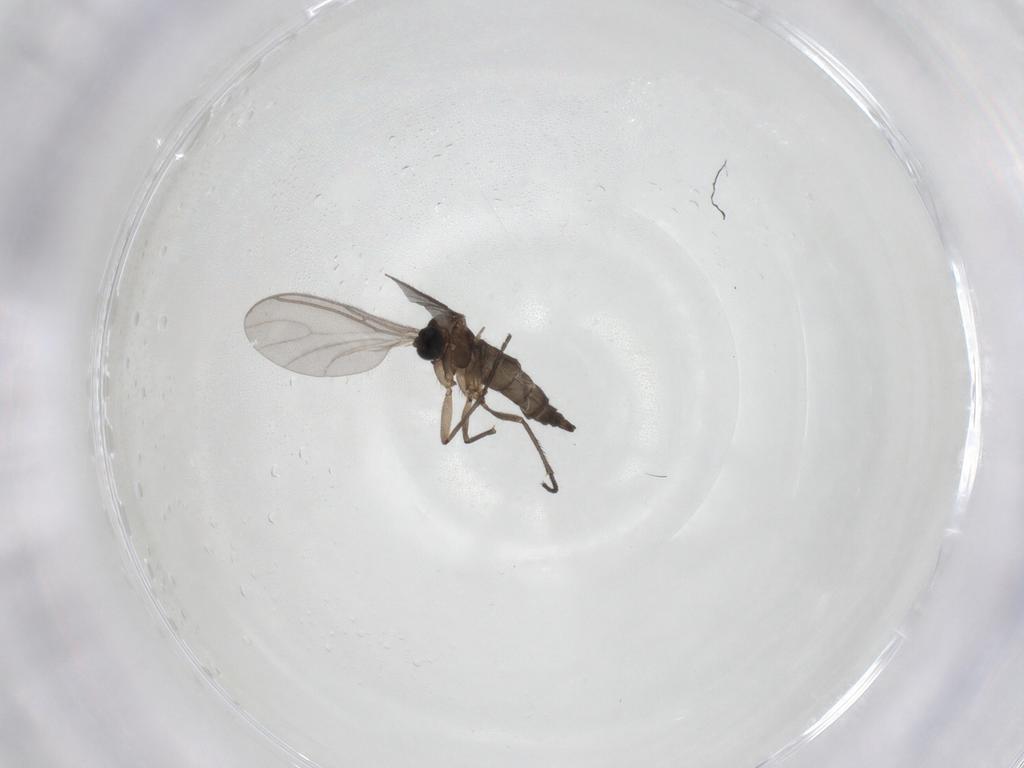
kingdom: Animalia
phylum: Arthropoda
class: Insecta
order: Diptera
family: Sciaridae
